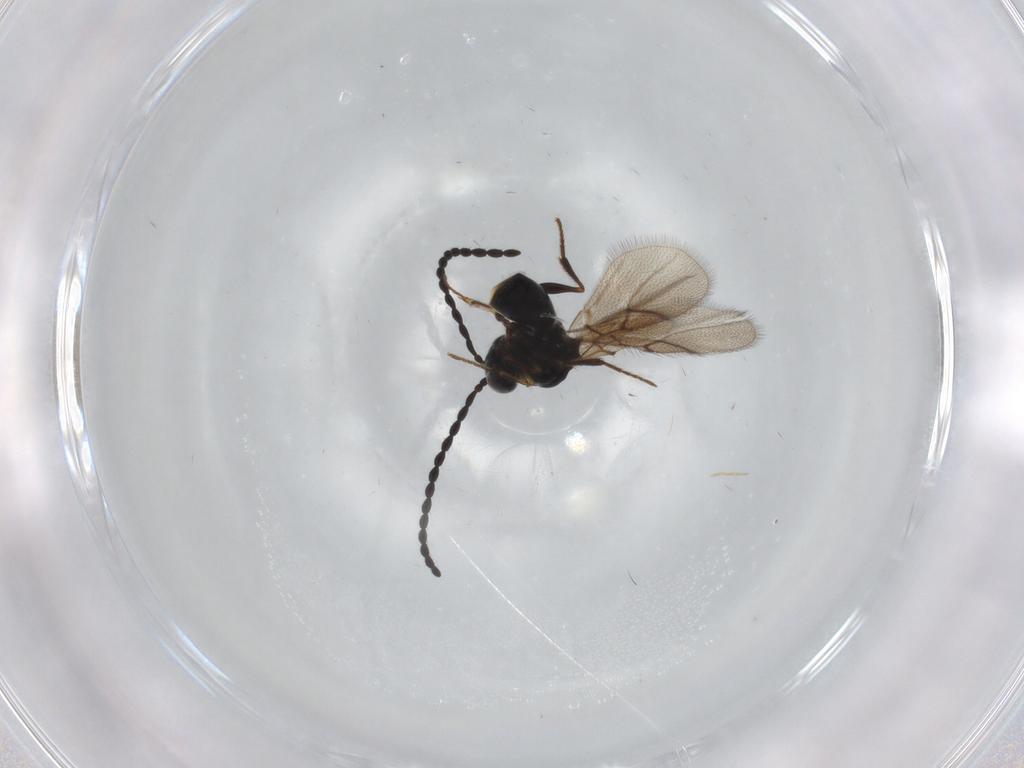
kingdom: Animalia
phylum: Arthropoda
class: Insecta
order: Hymenoptera
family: Figitidae
